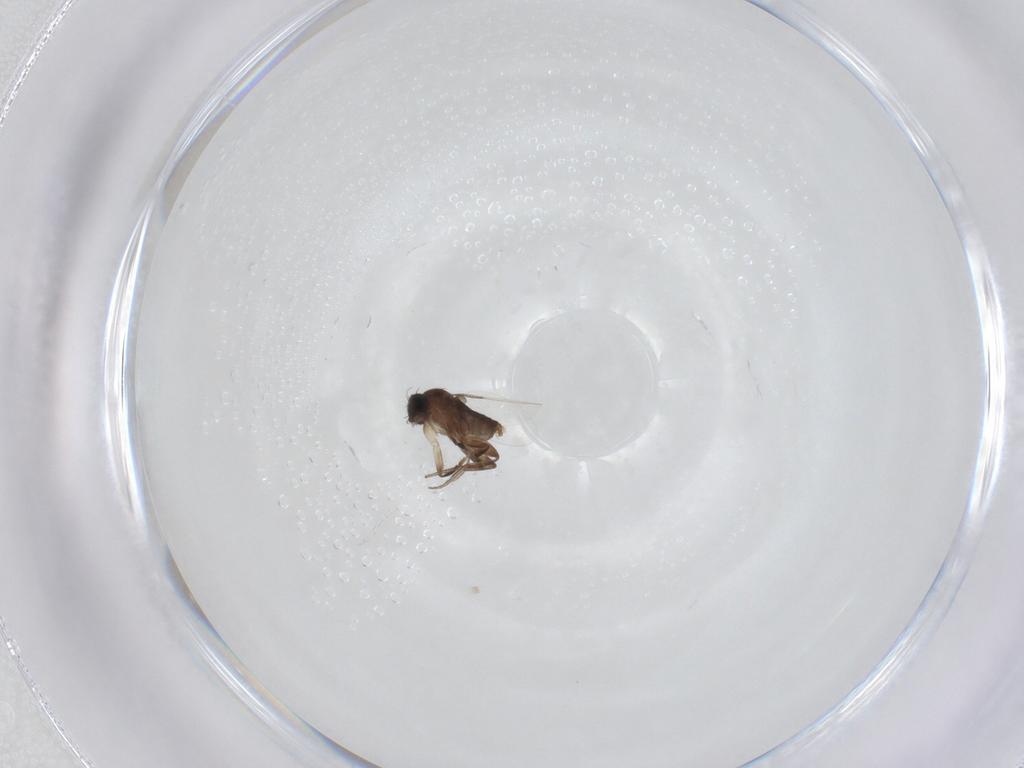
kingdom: Animalia
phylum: Arthropoda
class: Insecta
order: Diptera
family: Phoridae
